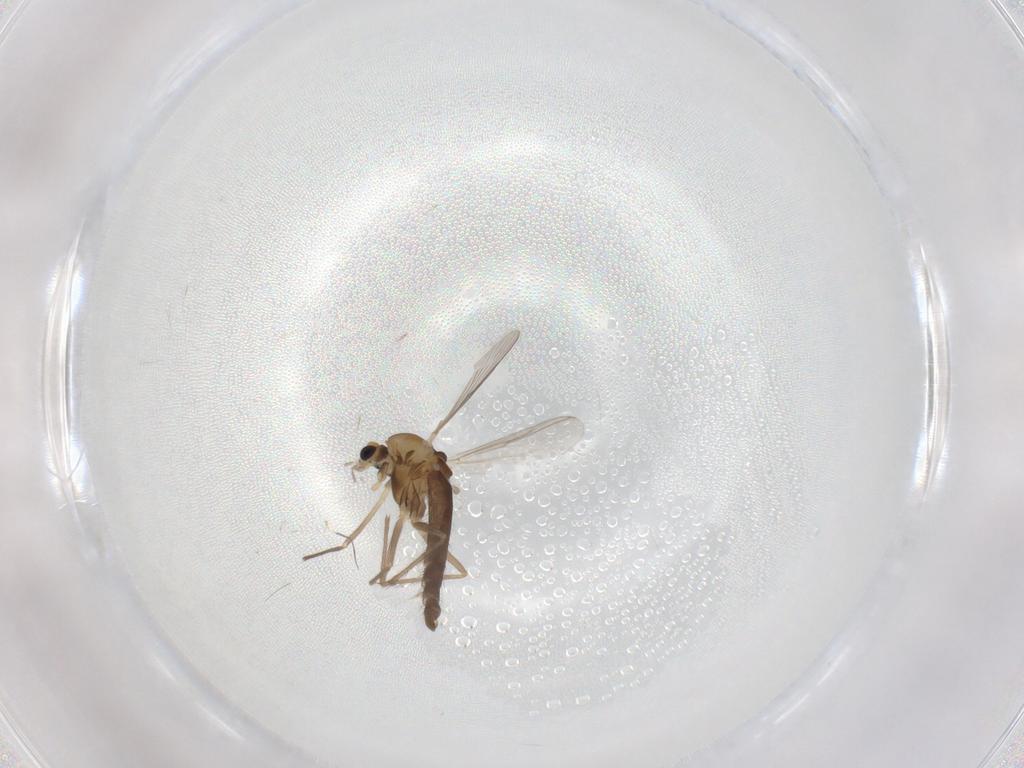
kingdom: Animalia
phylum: Arthropoda
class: Insecta
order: Diptera
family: Chironomidae
